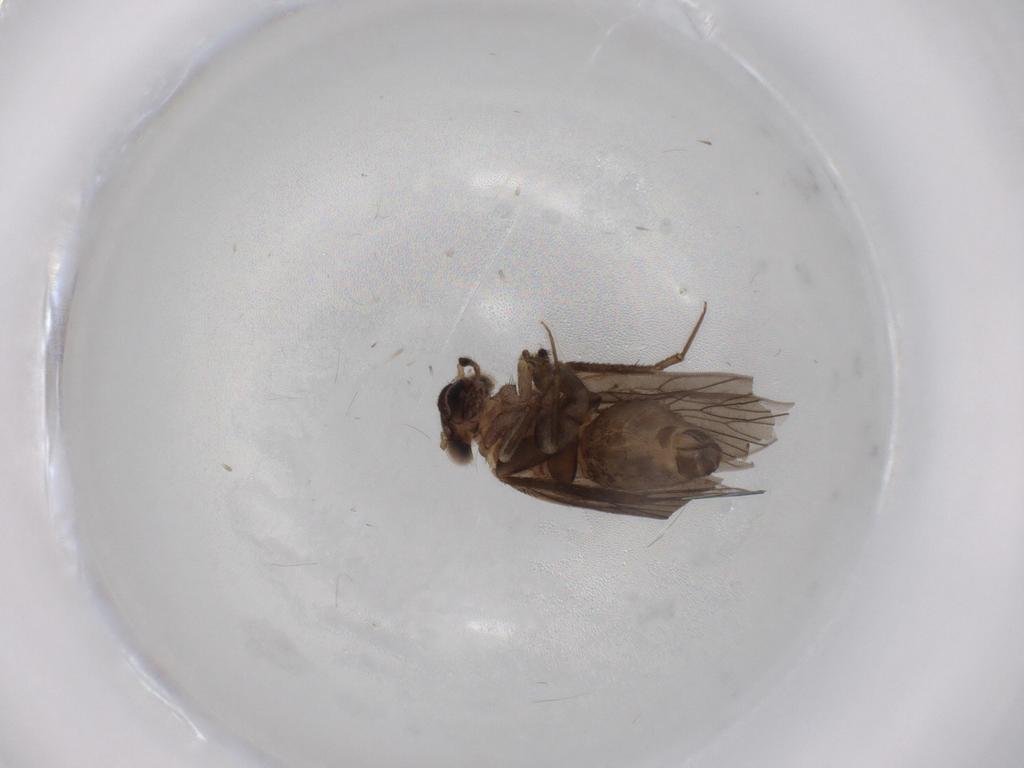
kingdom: Animalia
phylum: Arthropoda
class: Insecta
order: Psocodea
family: Lepidopsocidae
